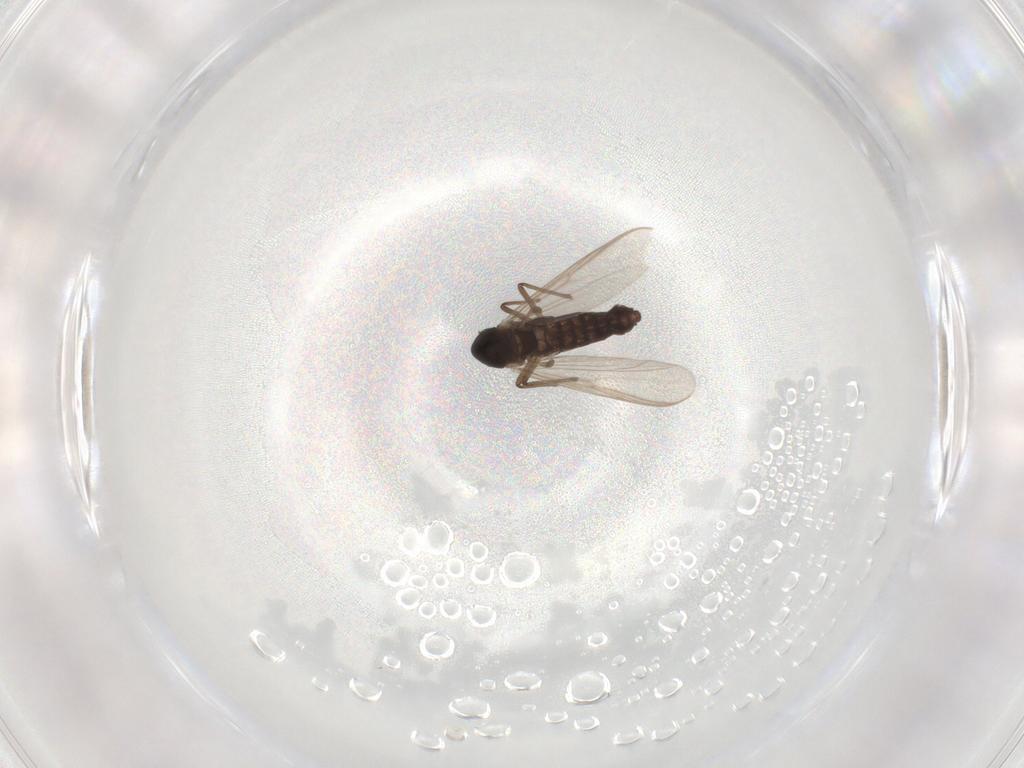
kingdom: Animalia
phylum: Arthropoda
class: Insecta
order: Diptera
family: Chironomidae
